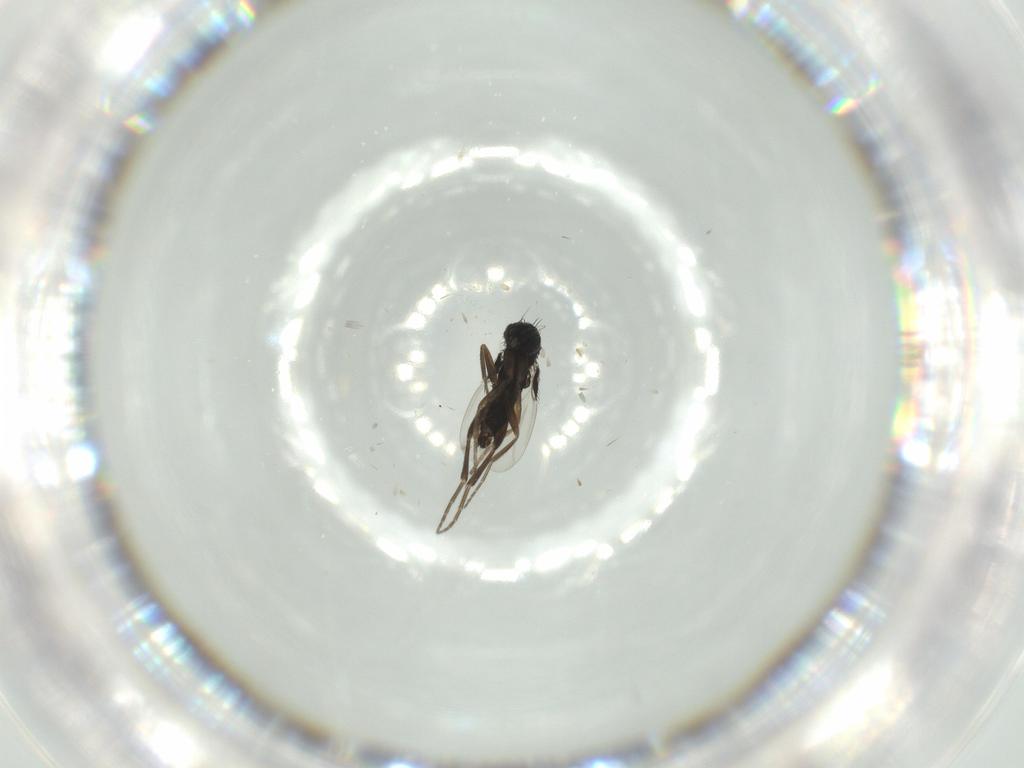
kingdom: Animalia
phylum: Arthropoda
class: Insecta
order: Diptera
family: Phoridae
